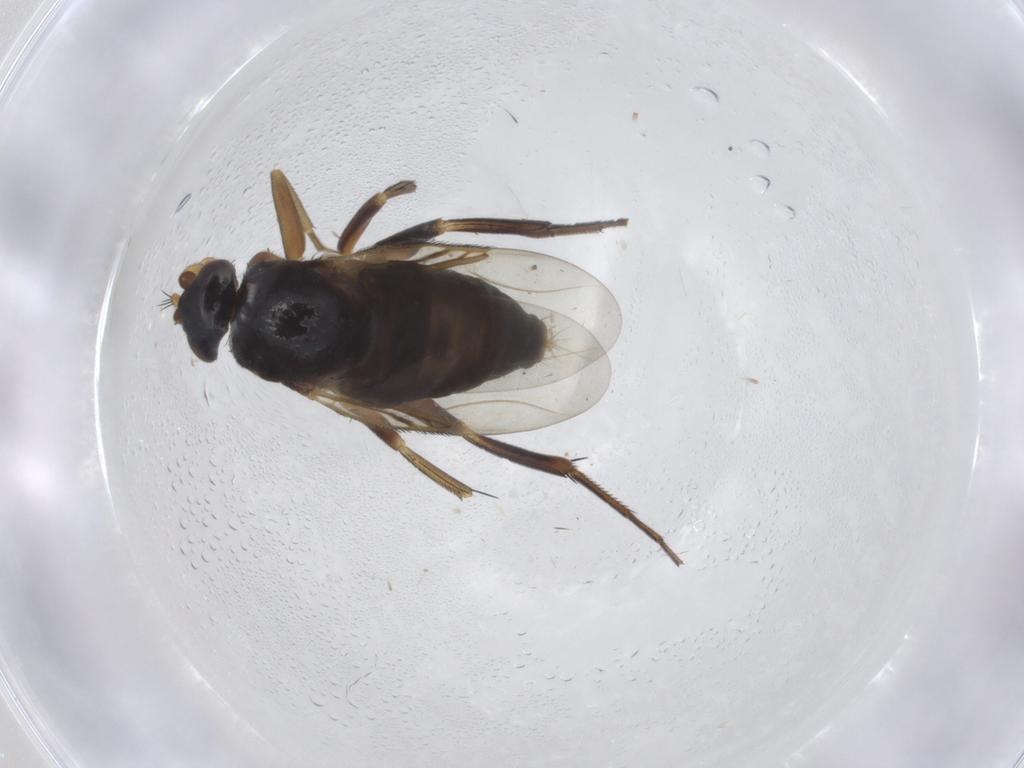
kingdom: Animalia
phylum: Arthropoda
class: Insecta
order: Diptera
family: Phoridae
